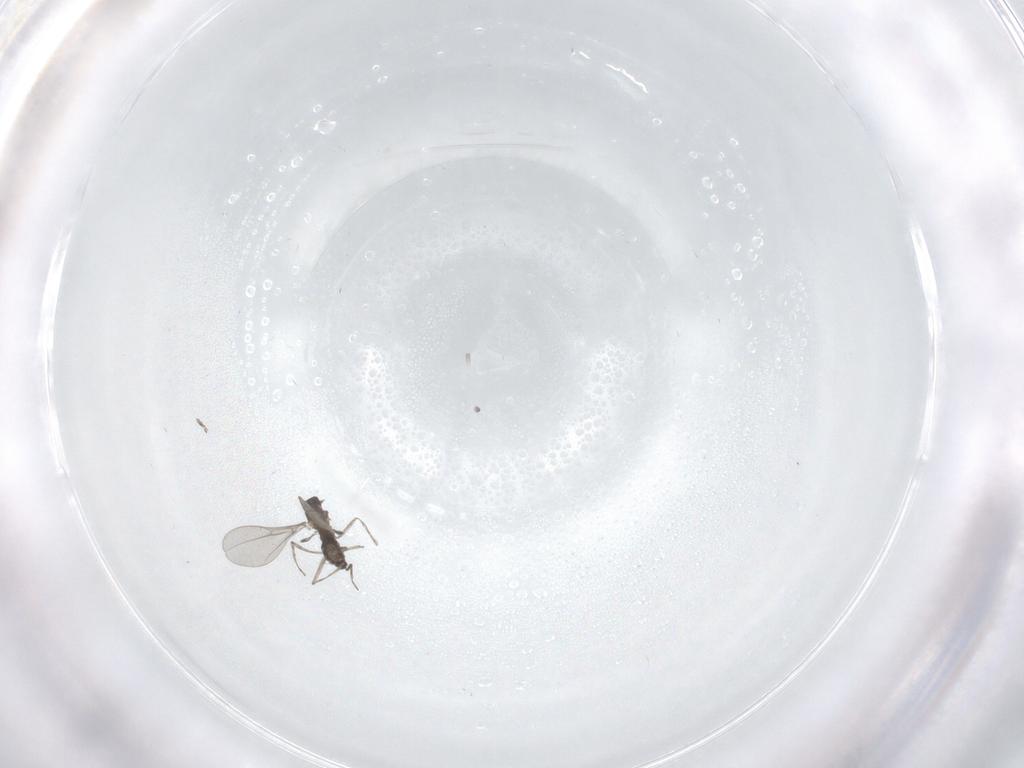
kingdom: Animalia
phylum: Arthropoda
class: Insecta
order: Diptera
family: Cecidomyiidae
